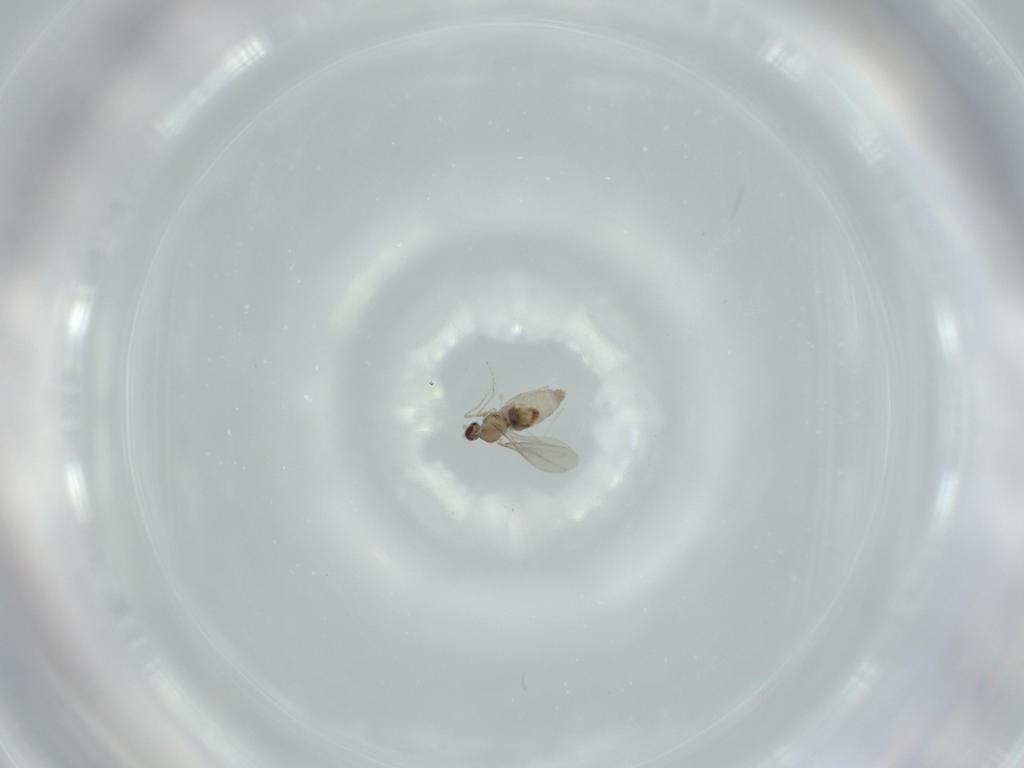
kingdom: Animalia
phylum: Arthropoda
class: Insecta
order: Diptera
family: Cecidomyiidae
